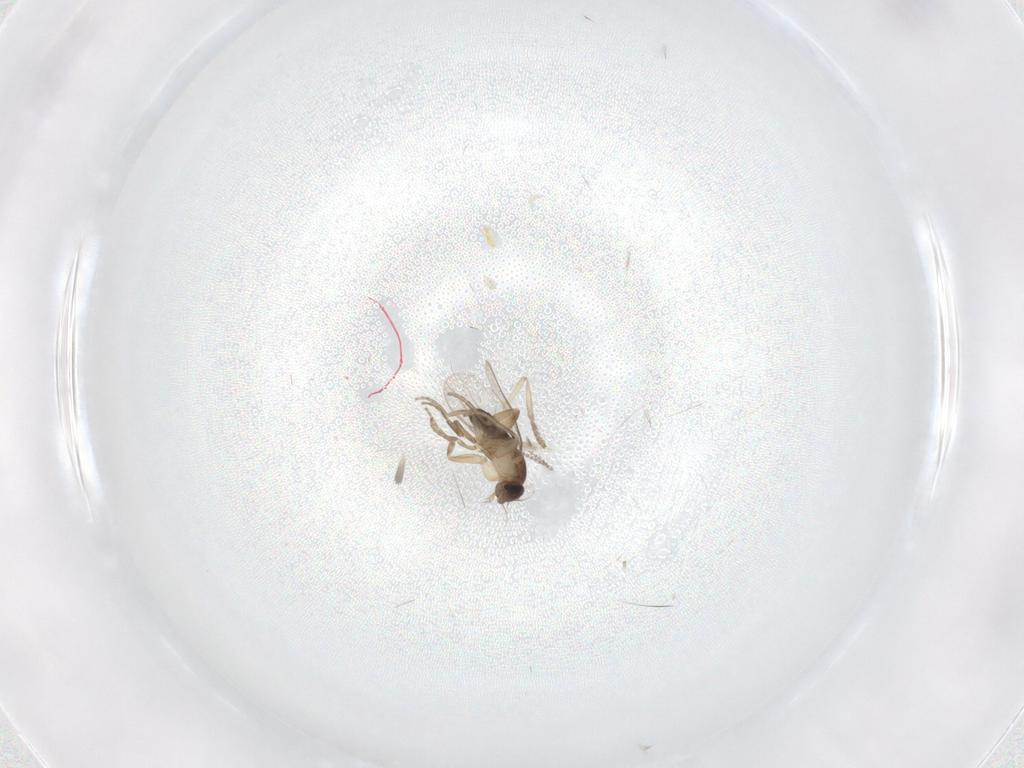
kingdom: Animalia
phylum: Arthropoda
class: Insecta
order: Diptera
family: Psychodidae
